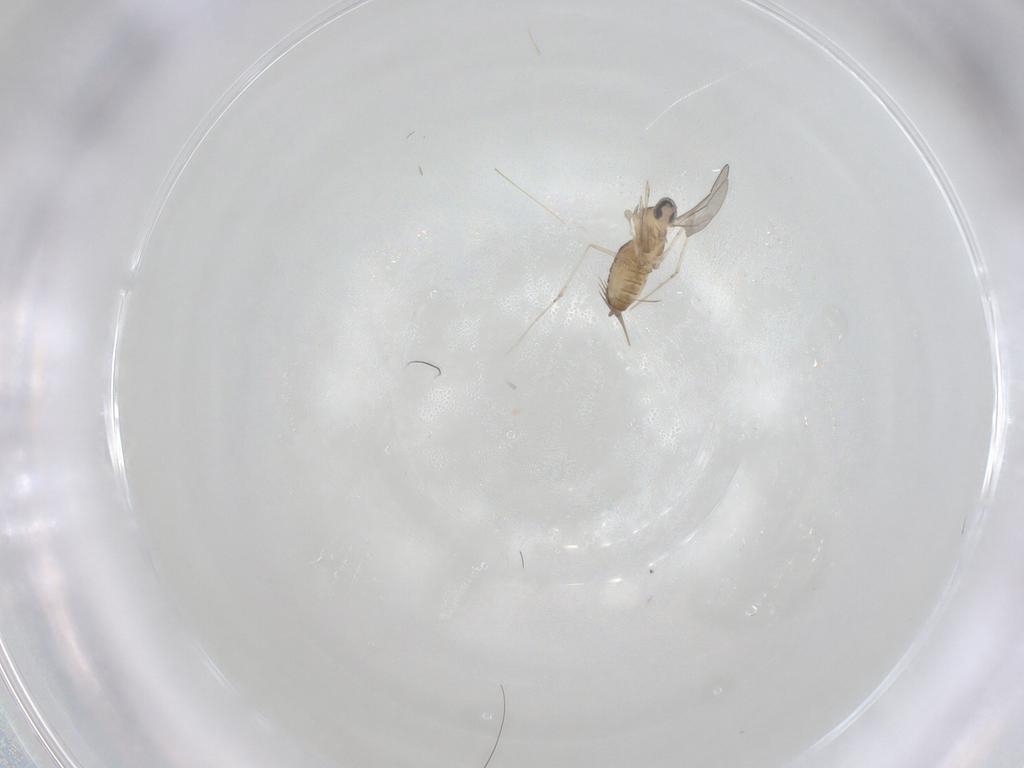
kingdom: Animalia
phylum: Arthropoda
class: Insecta
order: Diptera
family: Cecidomyiidae
